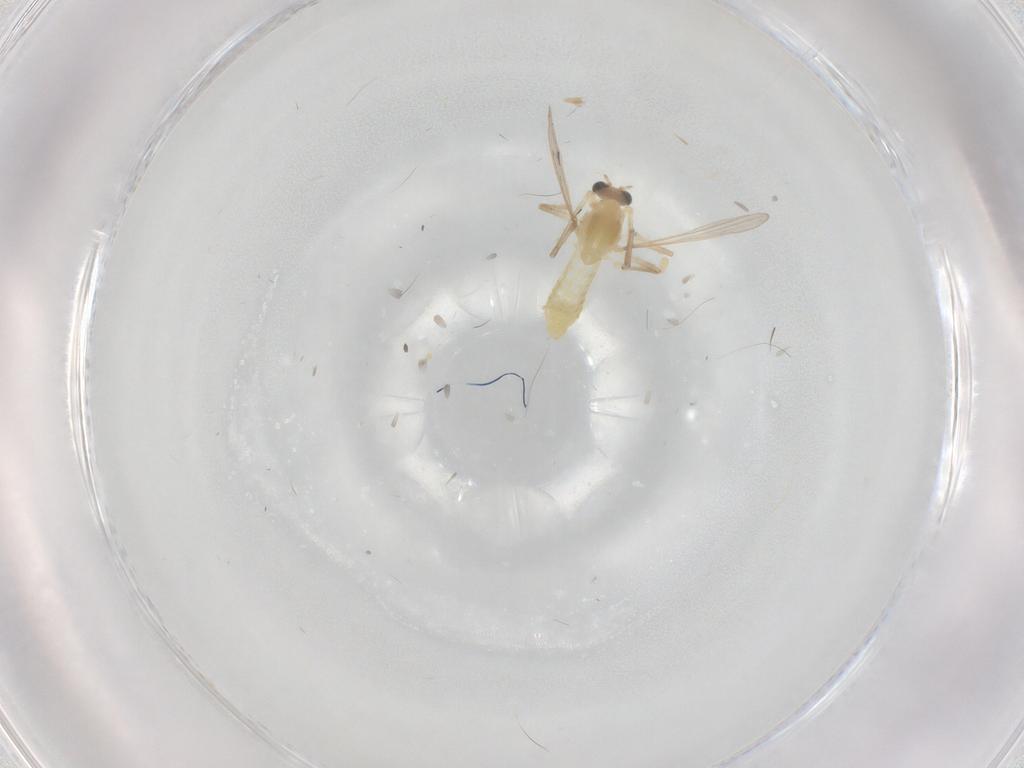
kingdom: Animalia
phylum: Arthropoda
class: Insecta
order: Diptera
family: Chironomidae
